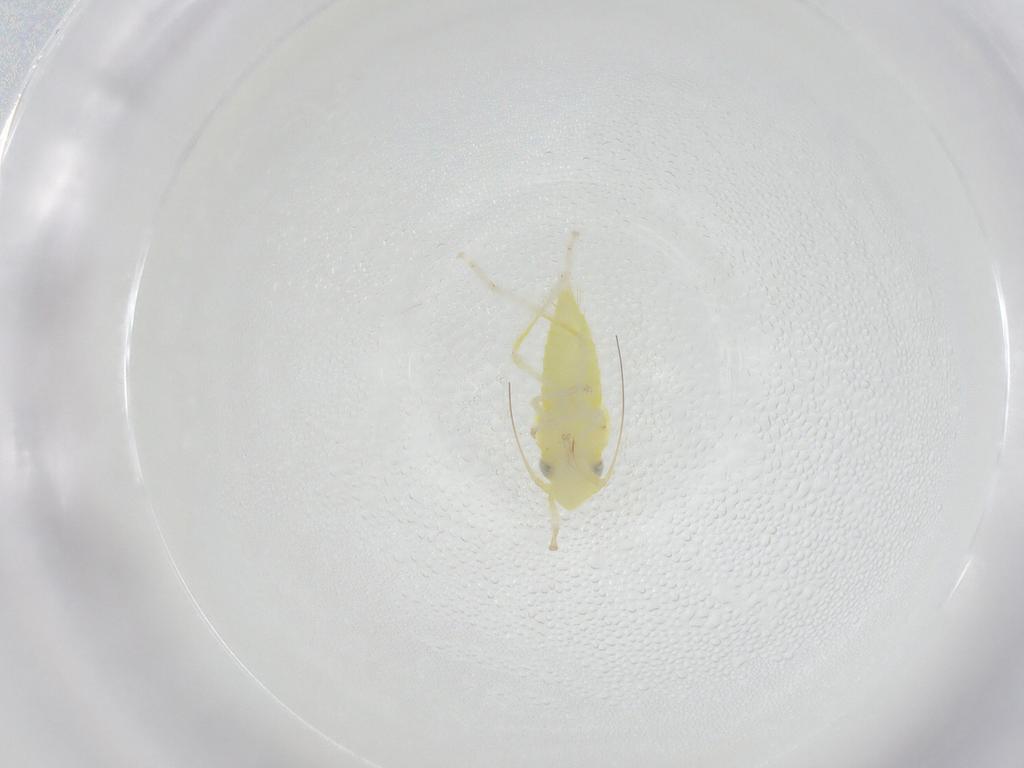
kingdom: Animalia
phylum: Arthropoda
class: Insecta
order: Hemiptera
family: Cicadellidae
